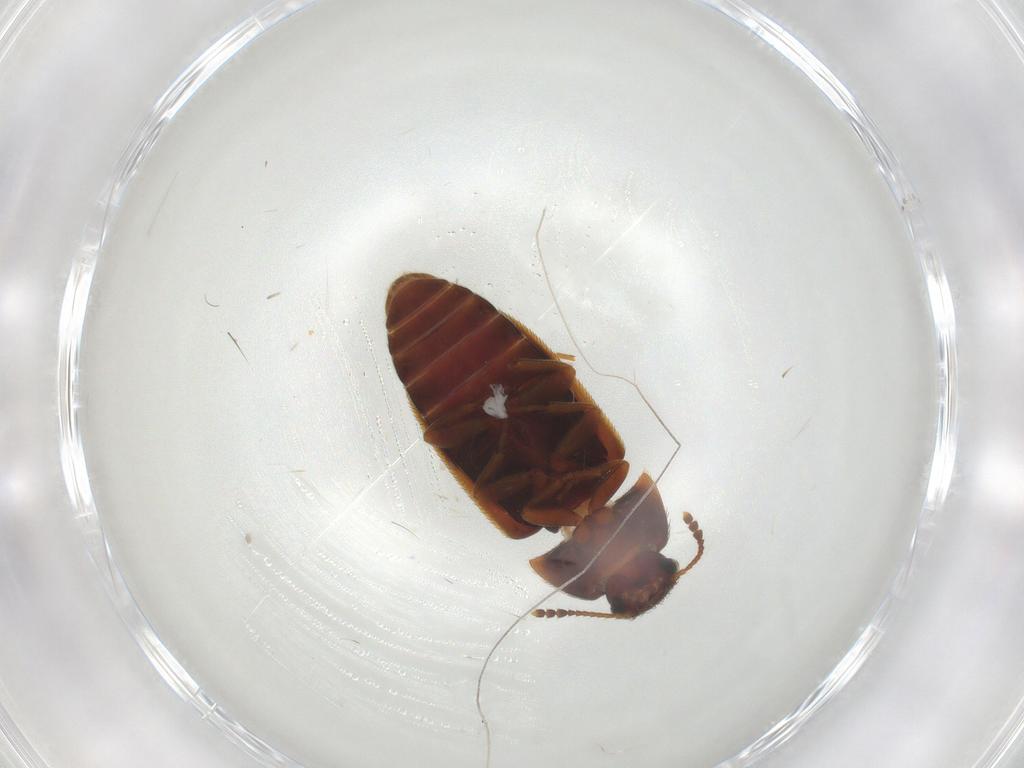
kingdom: Animalia
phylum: Arthropoda
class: Insecta
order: Coleoptera
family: Mycetophagidae
